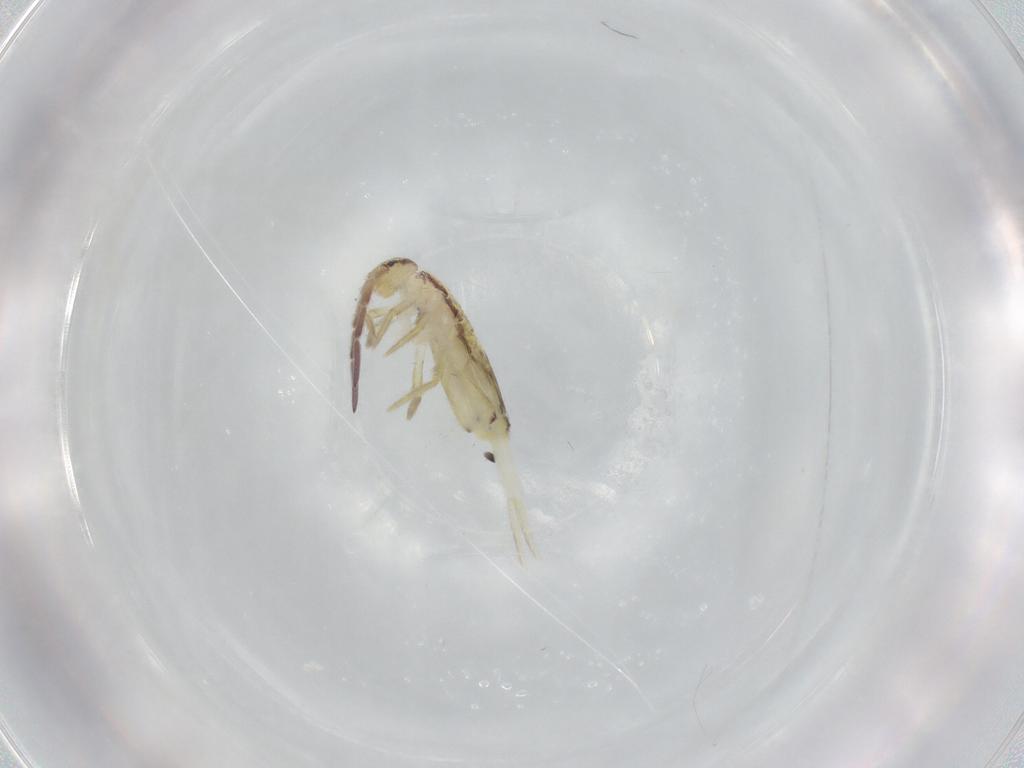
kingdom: Animalia
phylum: Arthropoda
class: Collembola
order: Entomobryomorpha
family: Entomobryidae
